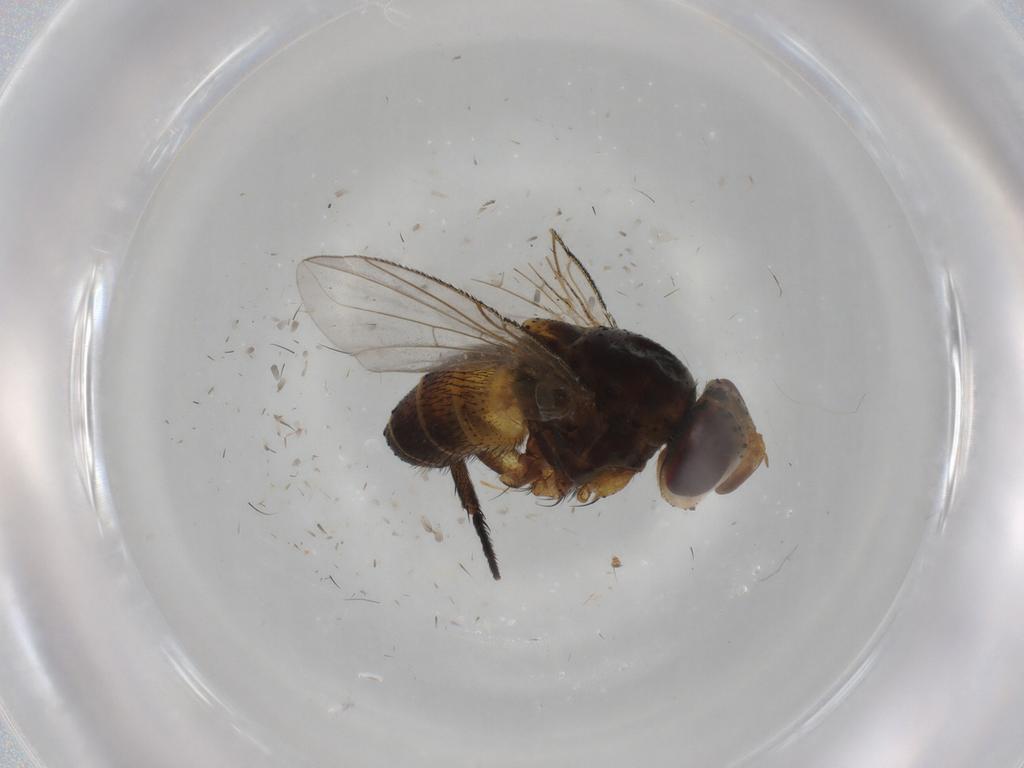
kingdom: Animalia
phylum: Arthropoda
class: Insecta
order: Diptera
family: Glossinidae
